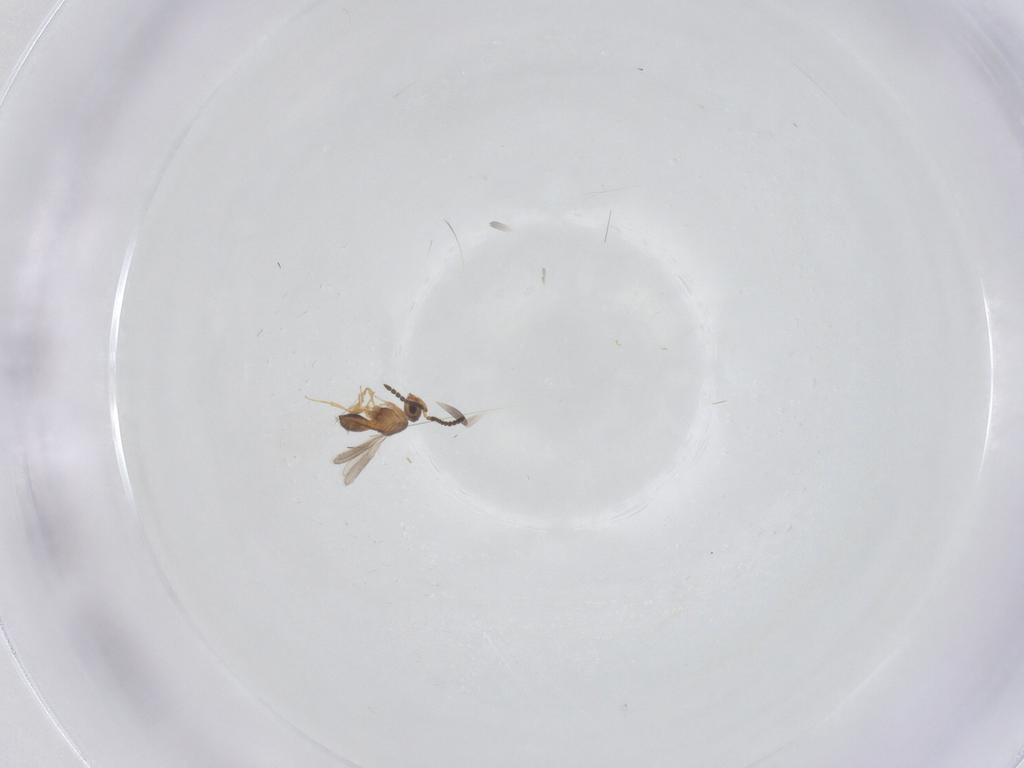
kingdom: Animalia
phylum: Arthropoda
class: Insecta
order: Hymenoptera
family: Scelionidae
